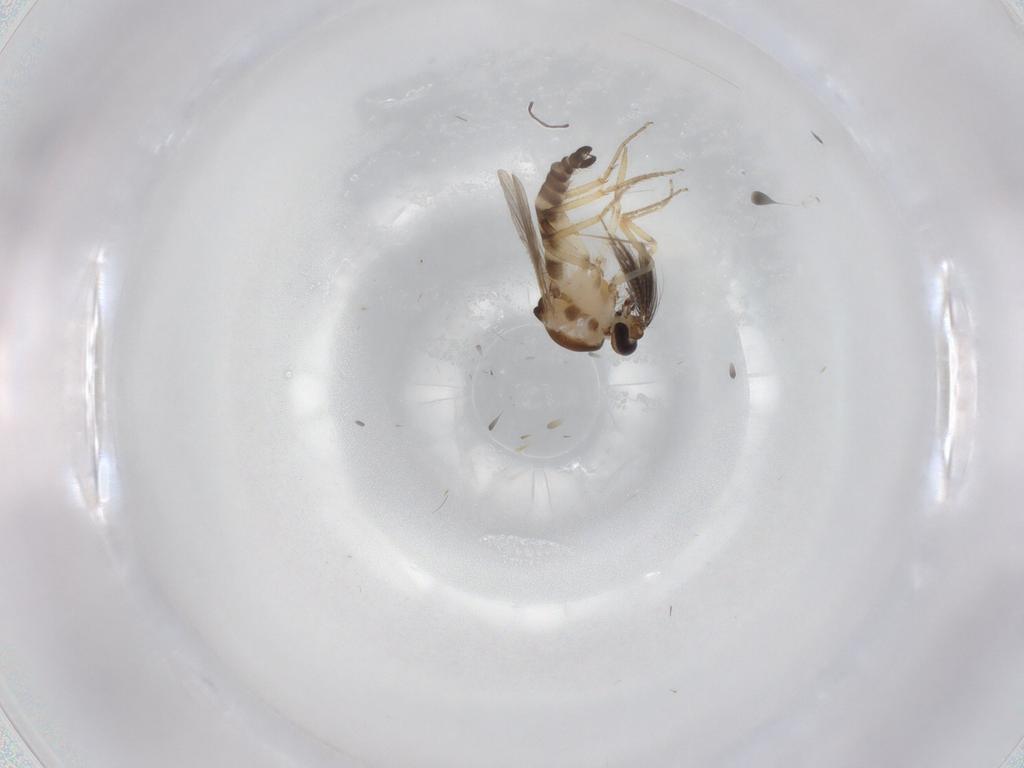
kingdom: Animalia
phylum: Arthropoda
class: Insecta
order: Diptera
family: Ceratopogonidae
